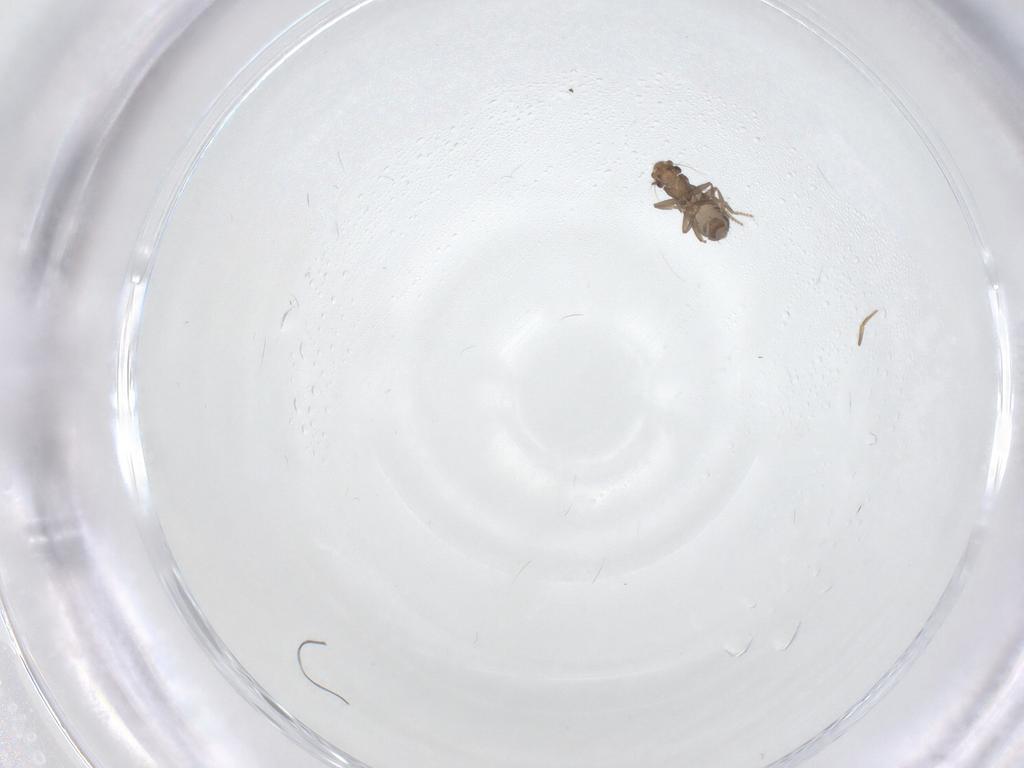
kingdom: Animalia
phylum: Arthropoda
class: Insecta
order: Diptera
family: Phoridae
